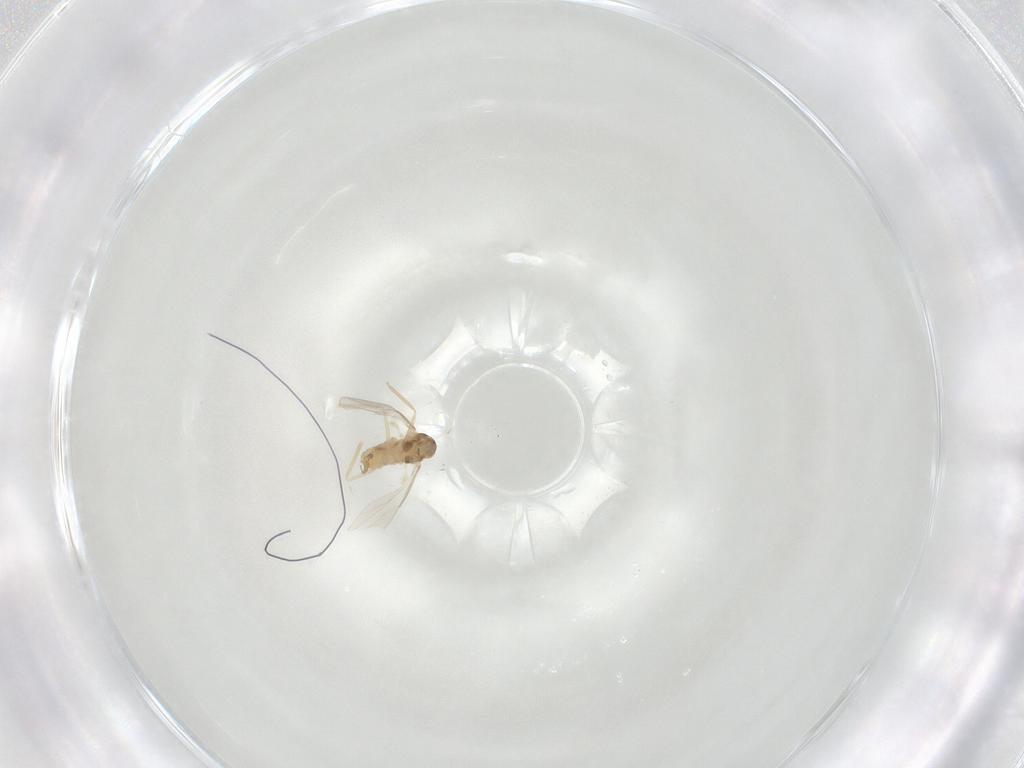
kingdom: Animalia
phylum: Arthropoda
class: Insecta
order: Diptera
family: Cecidomyiidae
